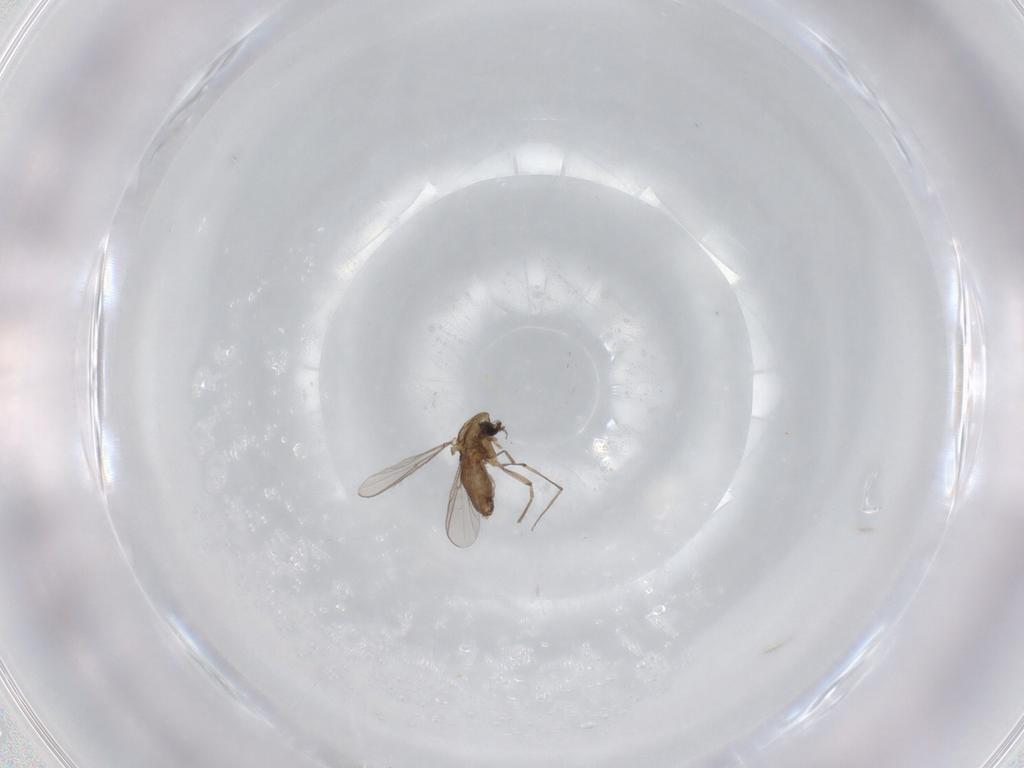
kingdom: Animalia
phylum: Arthropoda
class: Insecta
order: Diptera
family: Chironomidae
